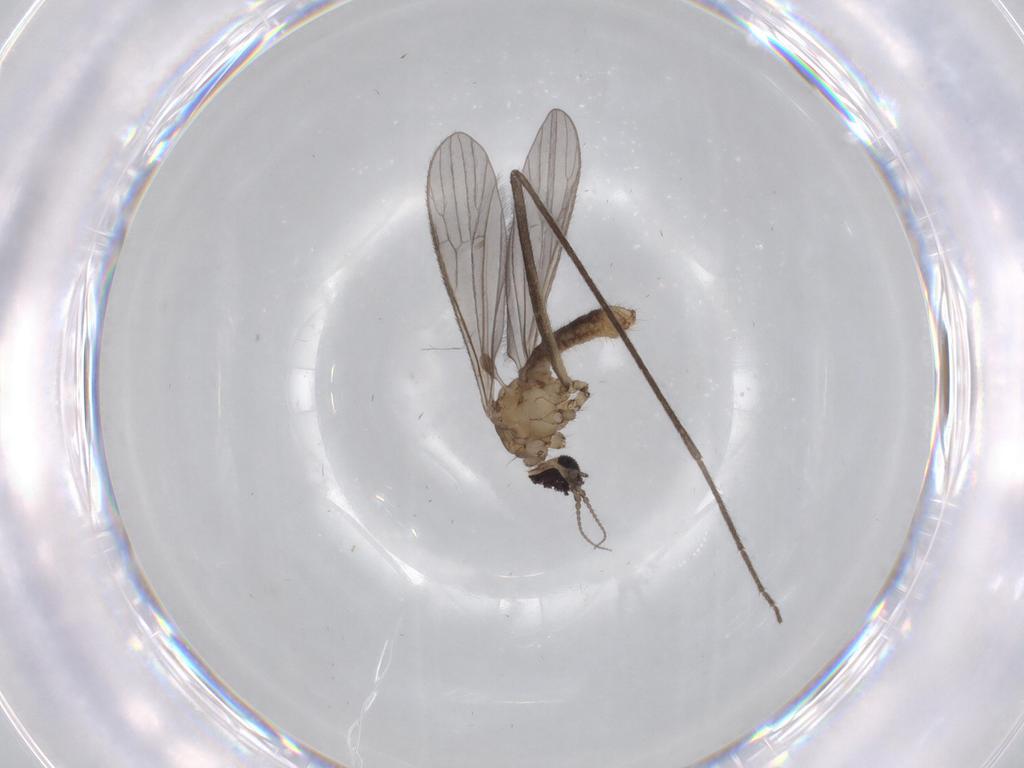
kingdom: Animalia
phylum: Arthropoda
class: Insecta
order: Diptera
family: Limoniidae
